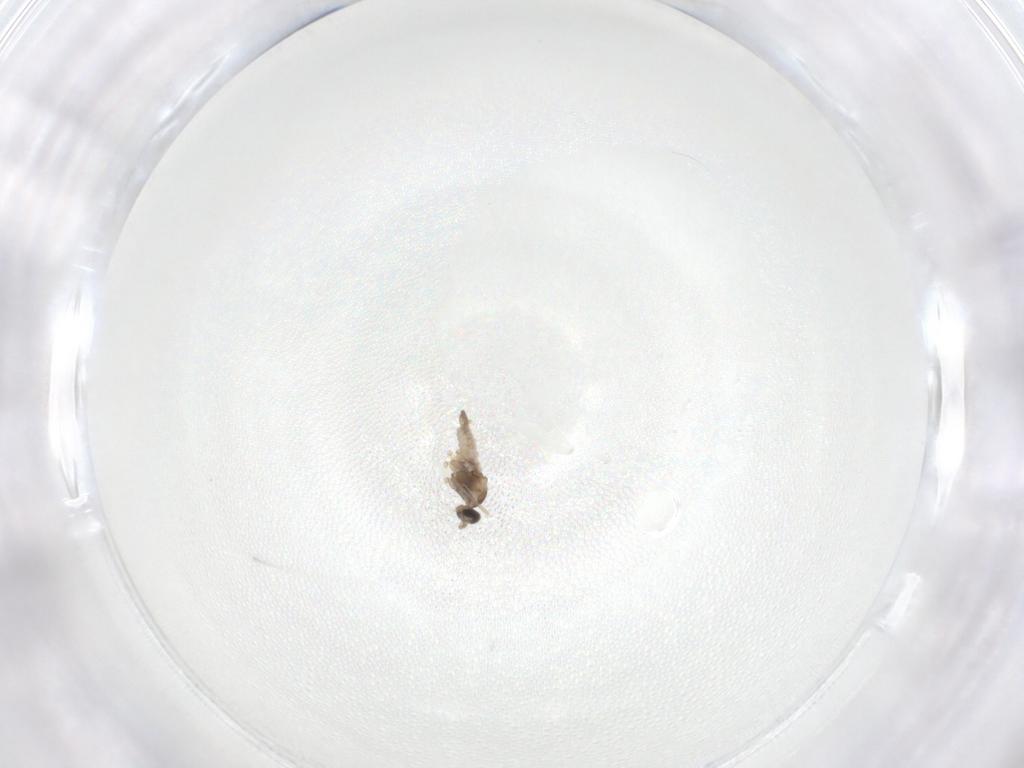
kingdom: Animalia
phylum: Arthropoda
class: Insecta
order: Diptera
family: Cecidomyiidae
